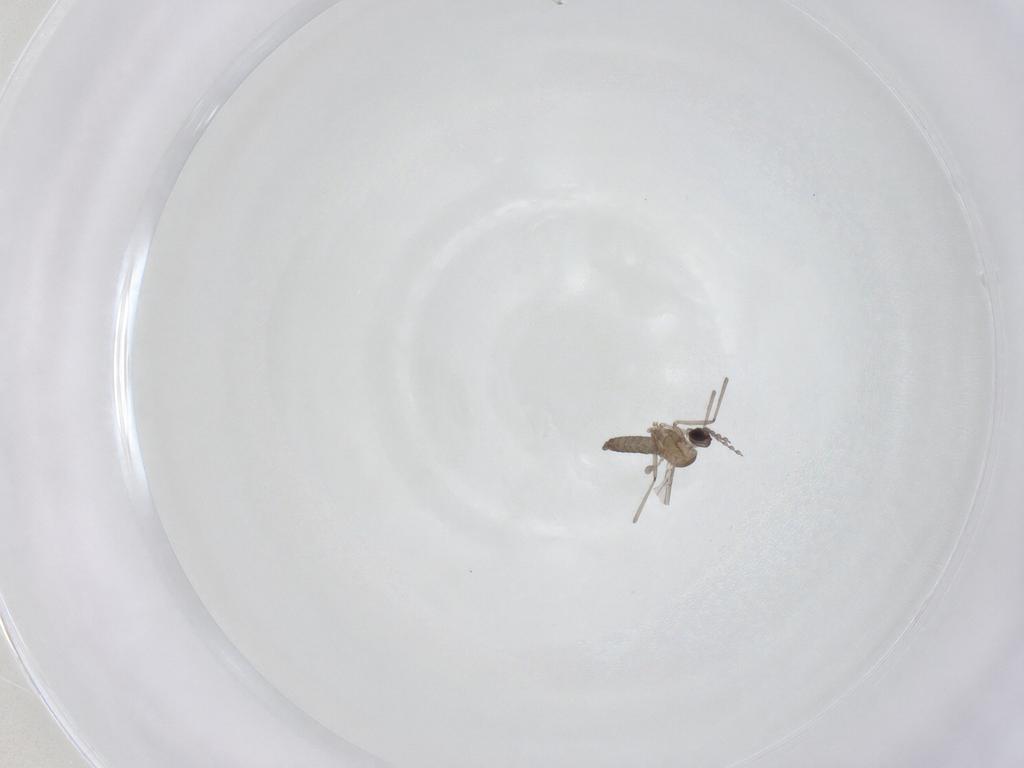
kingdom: Animalia
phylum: Arthropoda
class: Insecta
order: Diptera
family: Cecidomyiidae
